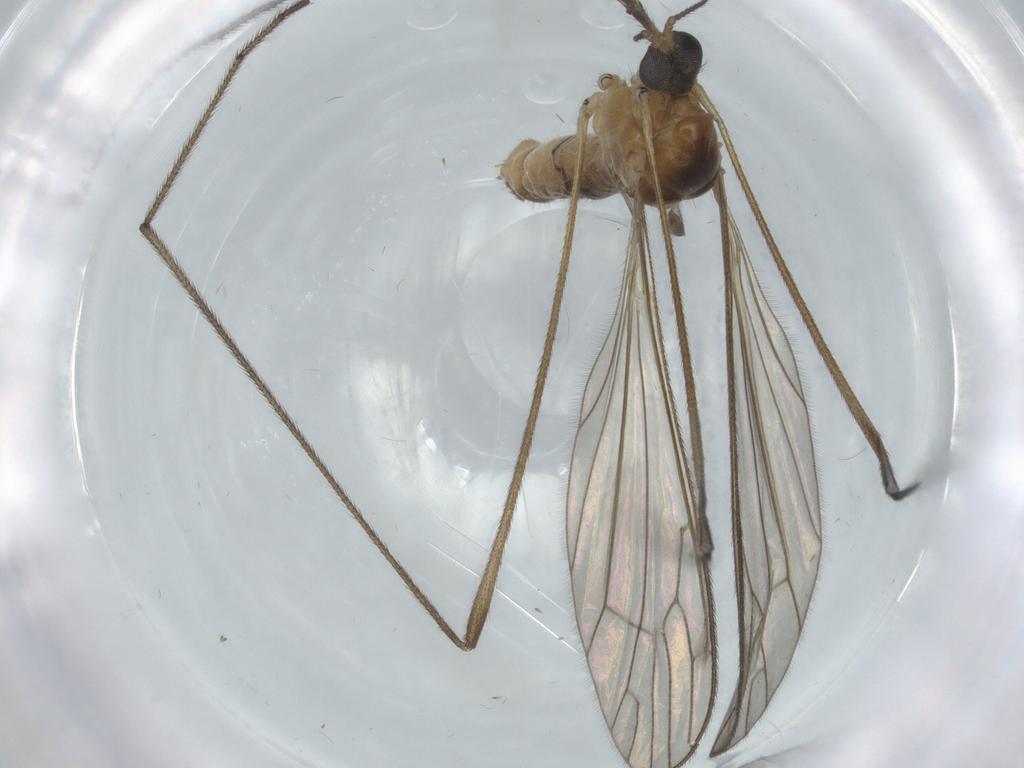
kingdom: Animalia
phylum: Arthropoda
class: Insecta
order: Diptera
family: Limoniidae
